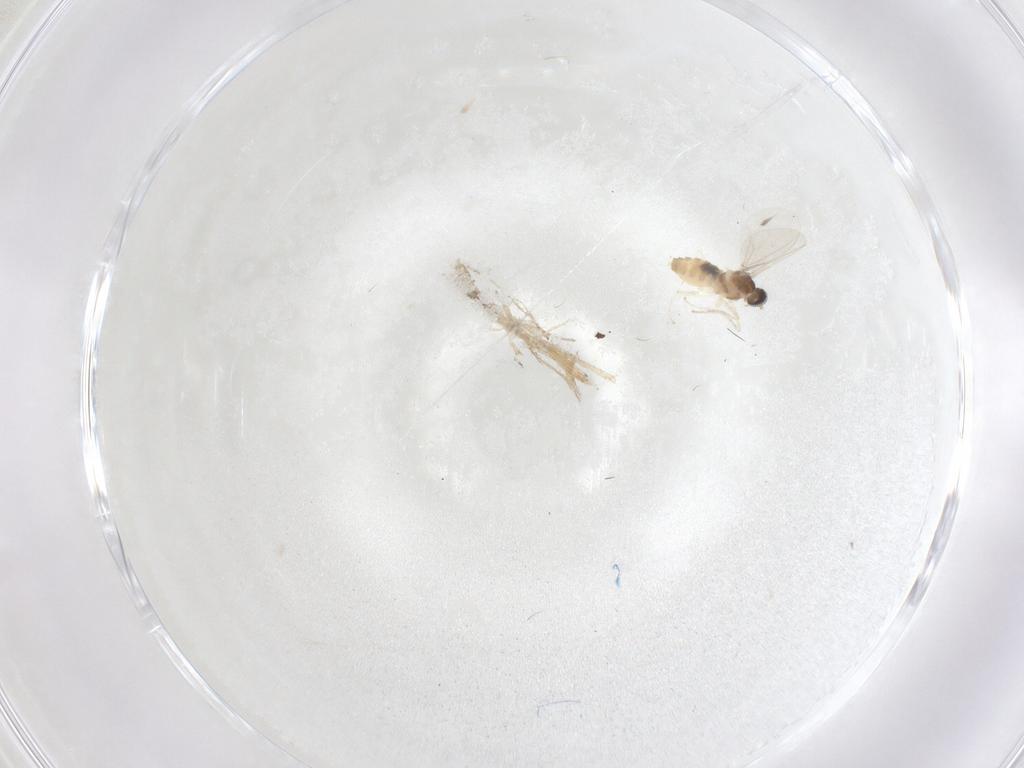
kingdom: Animalia
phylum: Arthropoda
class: Insecta
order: Diptera
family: Cecidomyiidae
